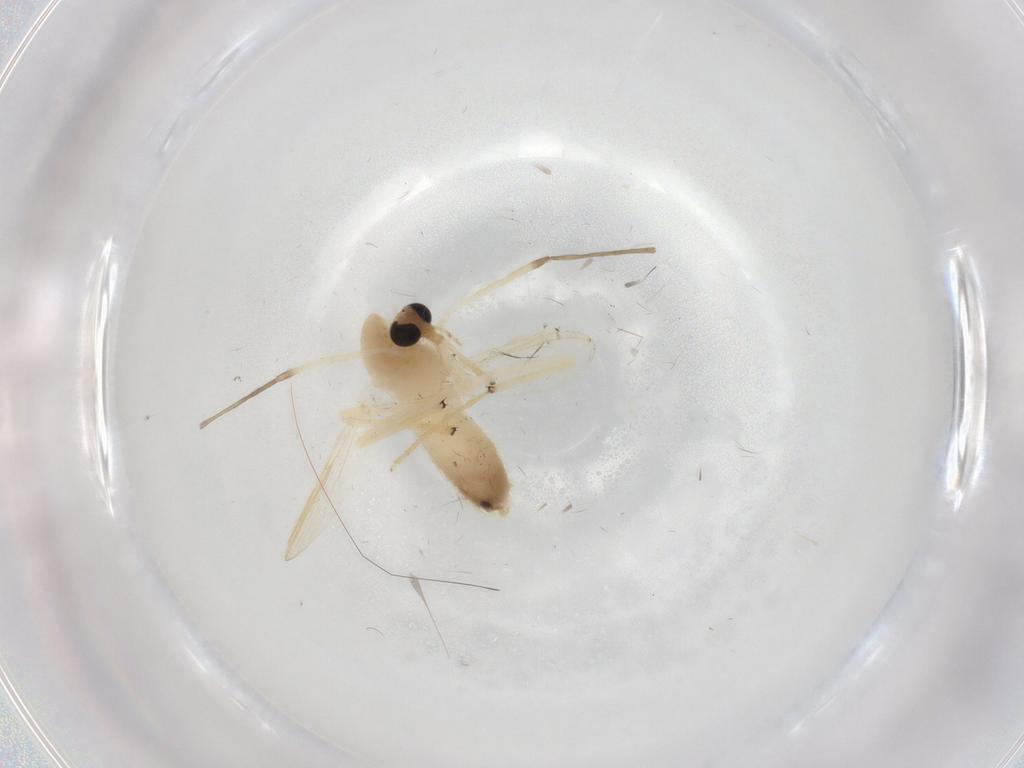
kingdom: Animalia
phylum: Arthropoda
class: Insecta
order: Diptera
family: Chironomidae
